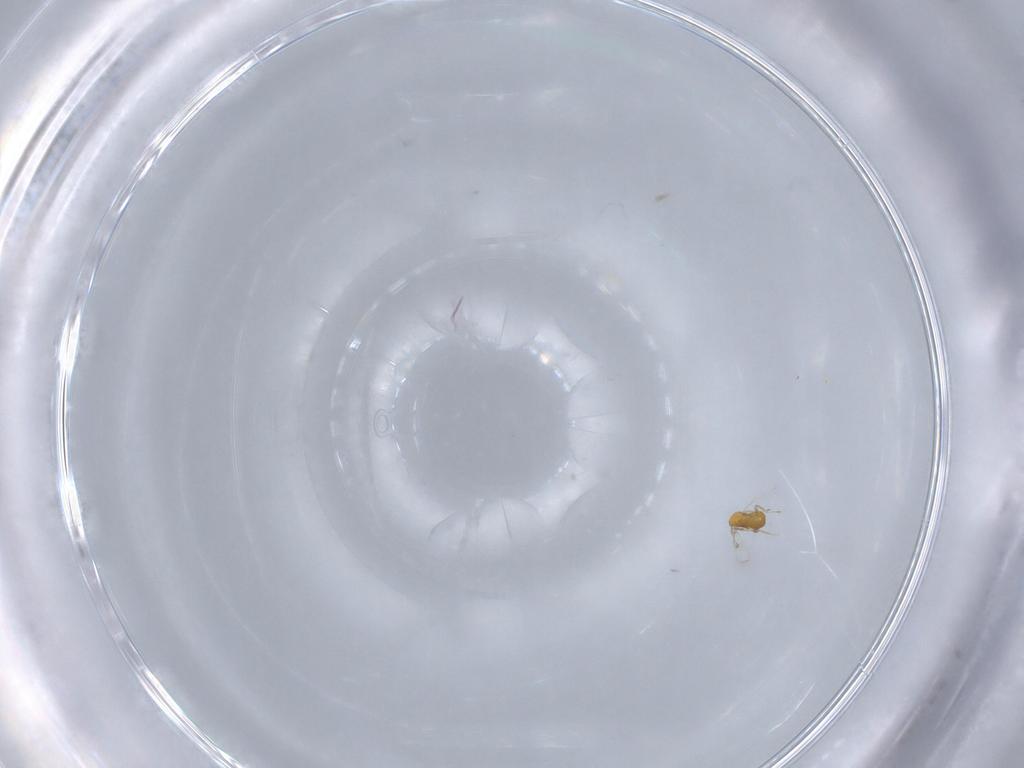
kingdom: Animalia
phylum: Arthropoda
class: Insecta
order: Hymenoptera
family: Trichogrammatidae
